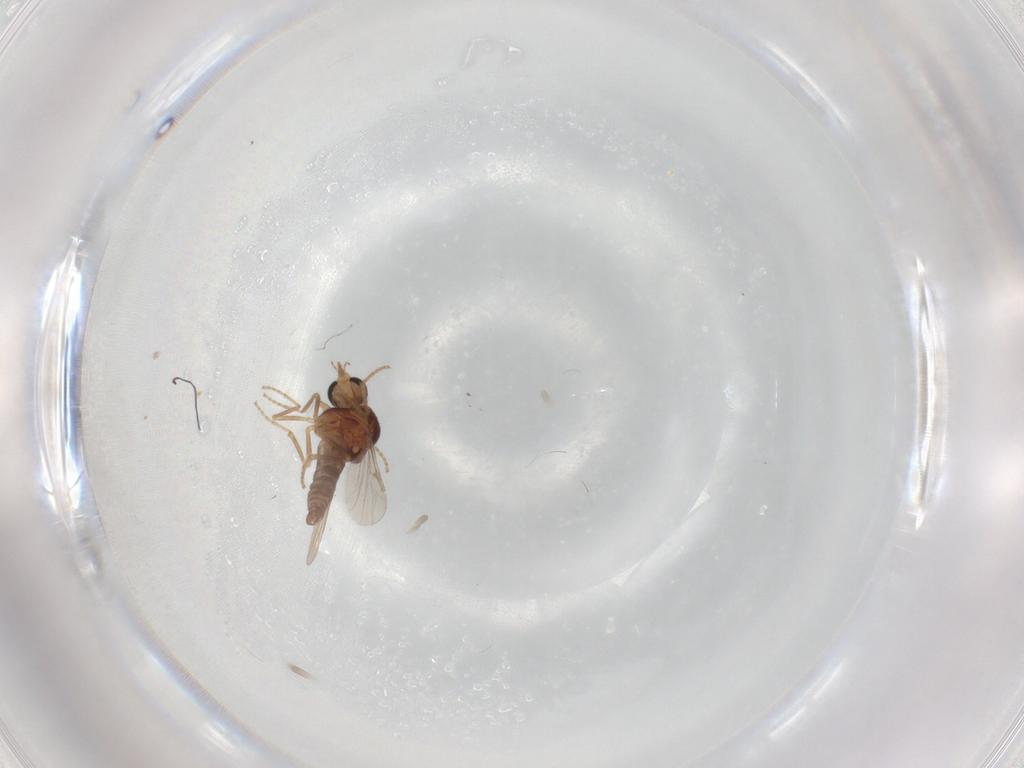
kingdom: Animalia
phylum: Arthropoda
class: Insecta
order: Diptera
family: Ceratopogonidae
